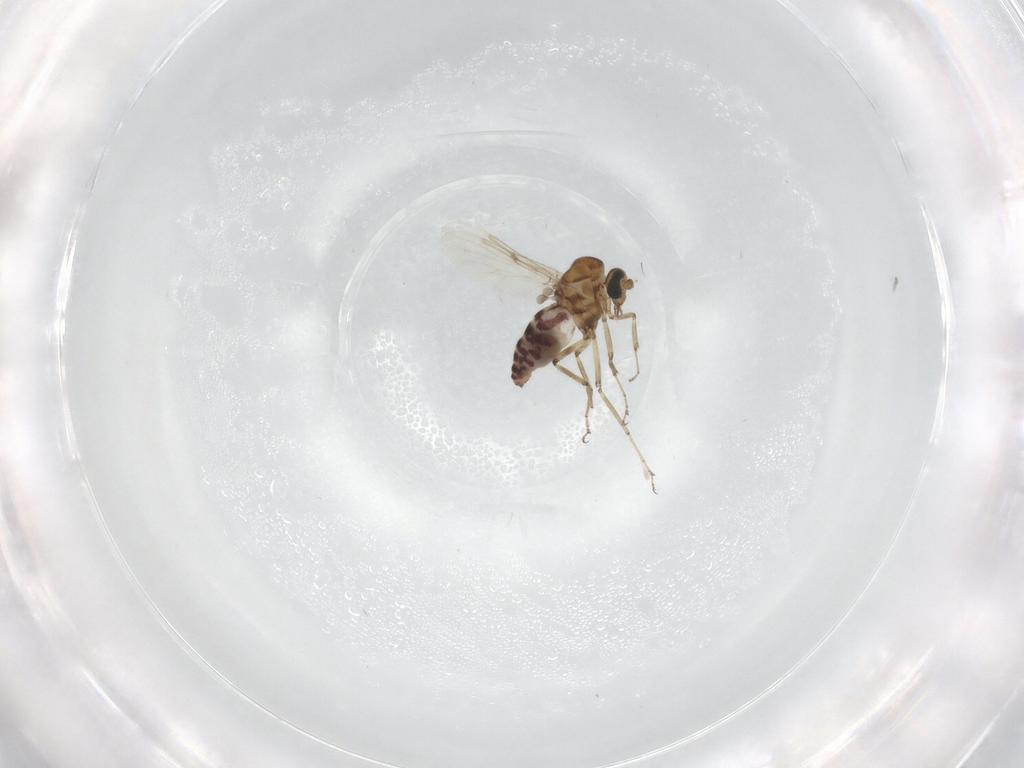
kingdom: Animalia
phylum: Arthropoda
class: Insecta
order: Diptera
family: Ceratopogonidae
